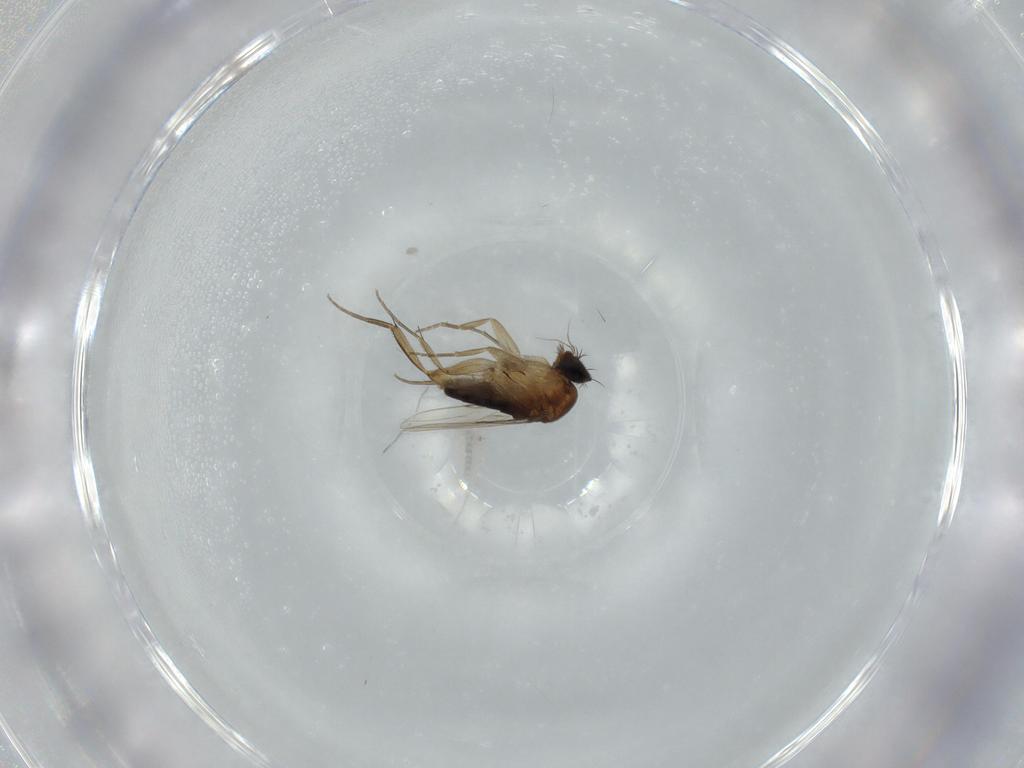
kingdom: Animalia
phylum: Arthropoda
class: Insecta
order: Diptera
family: Phoridae
